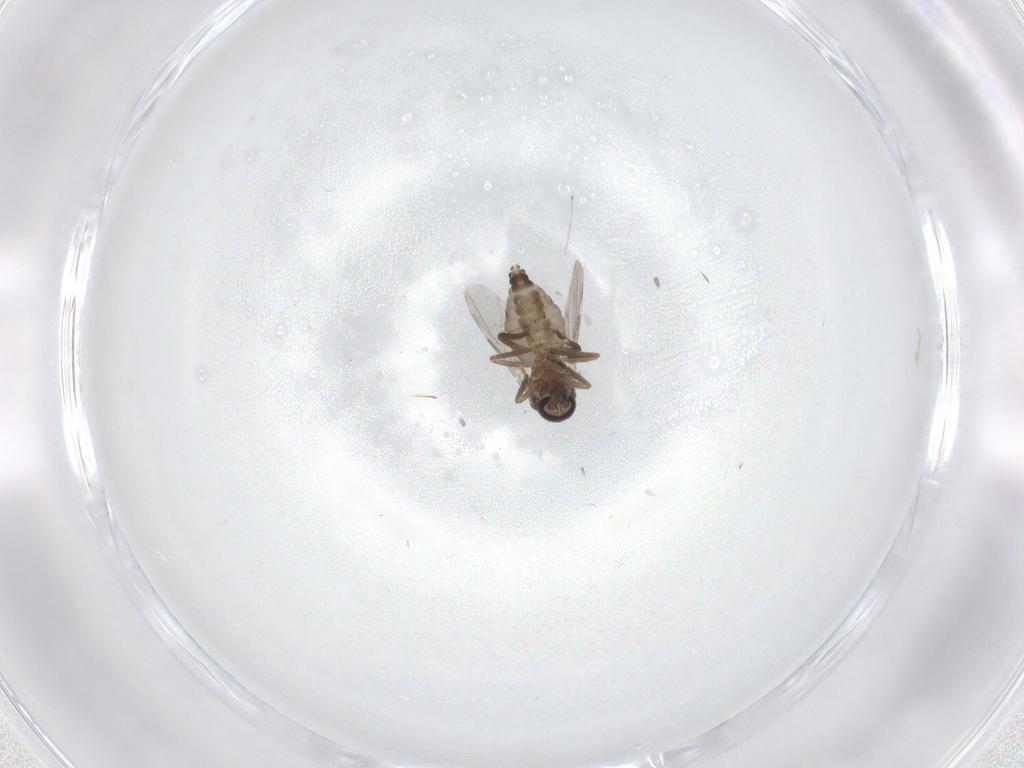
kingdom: Animalia
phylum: Arthropoda
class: Insecta
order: Diptera
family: Ceratopogonidae
